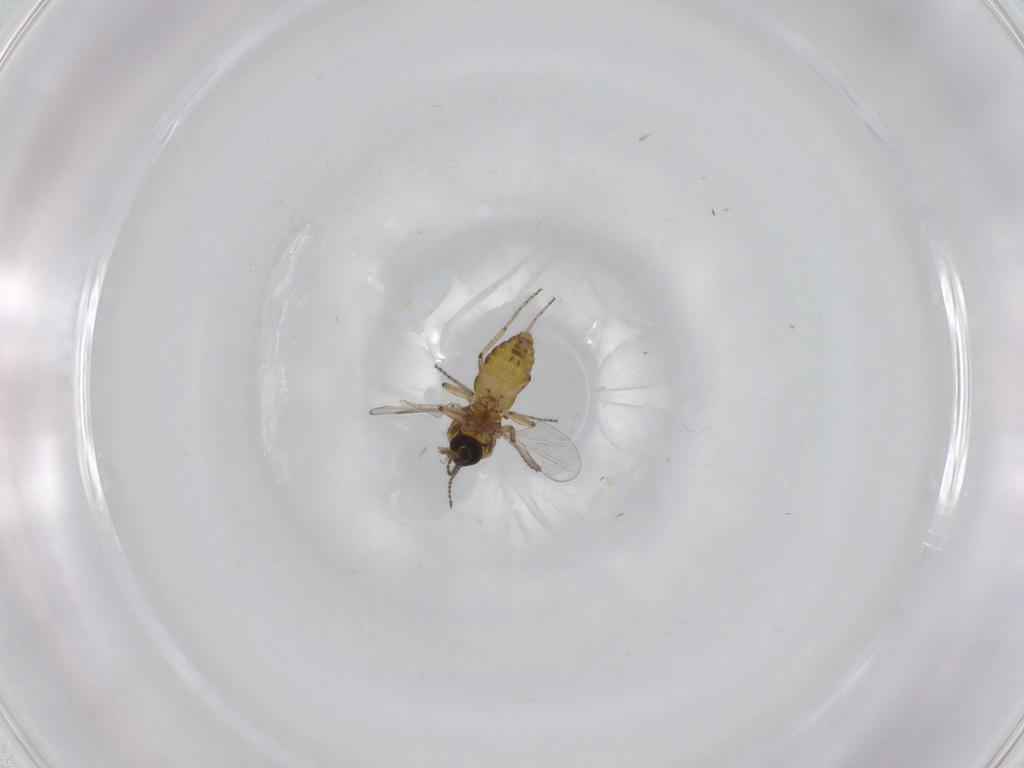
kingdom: Animalia
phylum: Arthropoda
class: Insecta
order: Diptera
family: Ceratopogonidae
